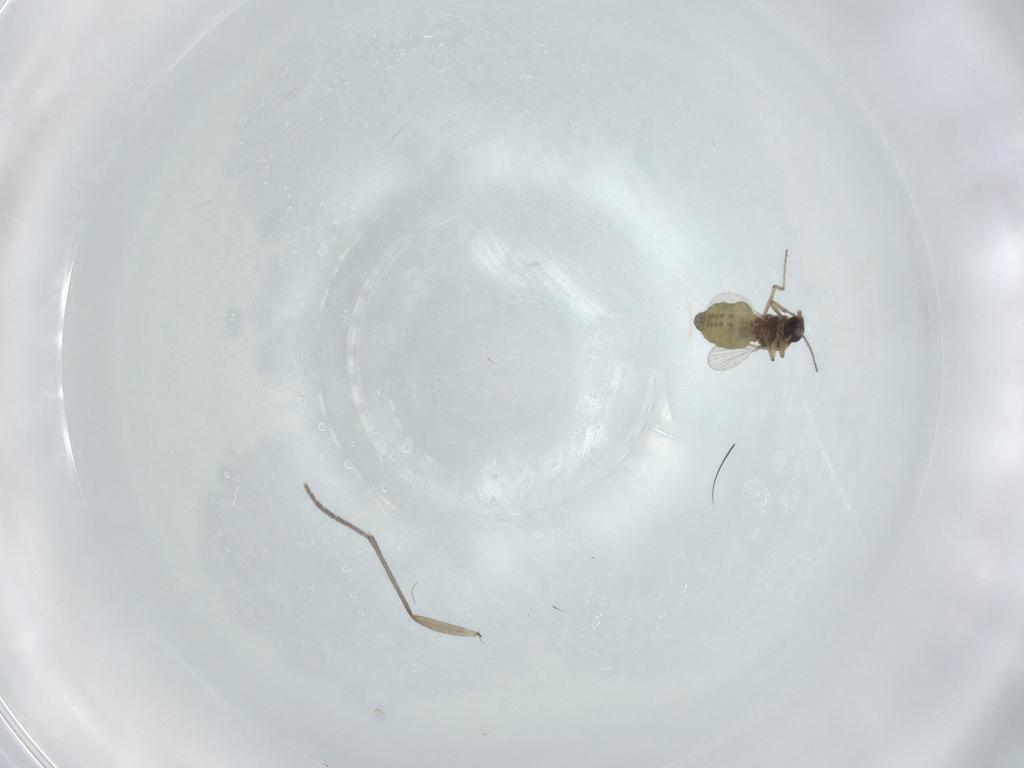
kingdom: Animalia
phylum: Arthropoda
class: Insecta
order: Diptera
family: Ceratopogonidae
